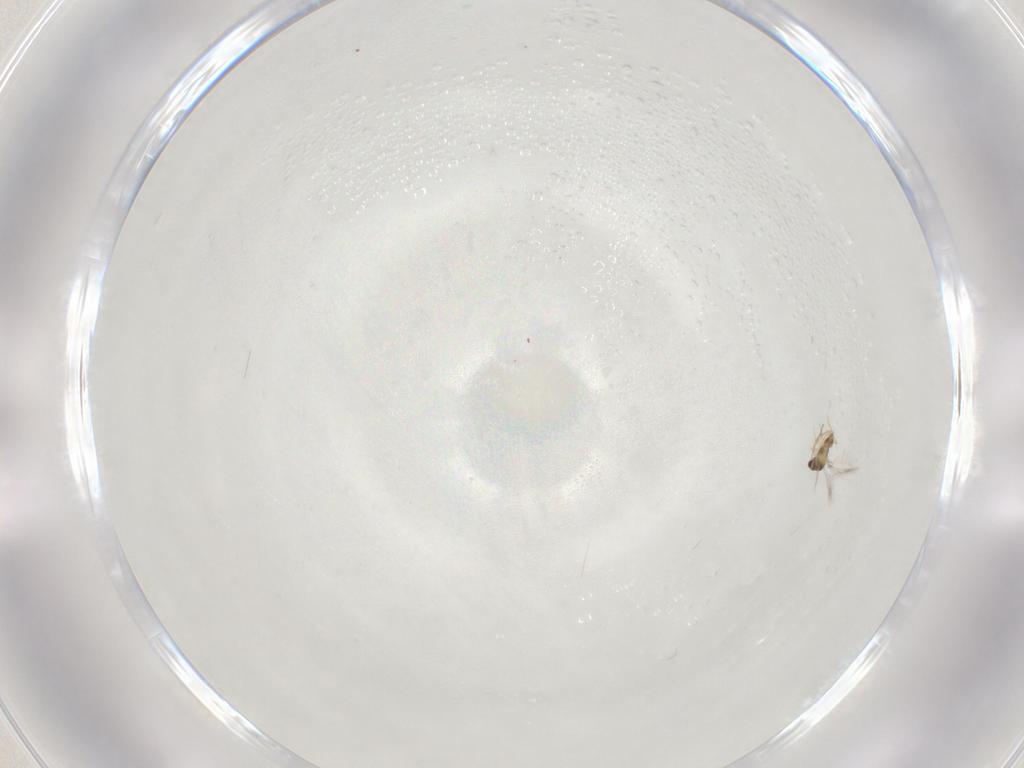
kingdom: Animalia
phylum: Arthropoda
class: Insecta
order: Hymenoptera
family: Mymaridae
